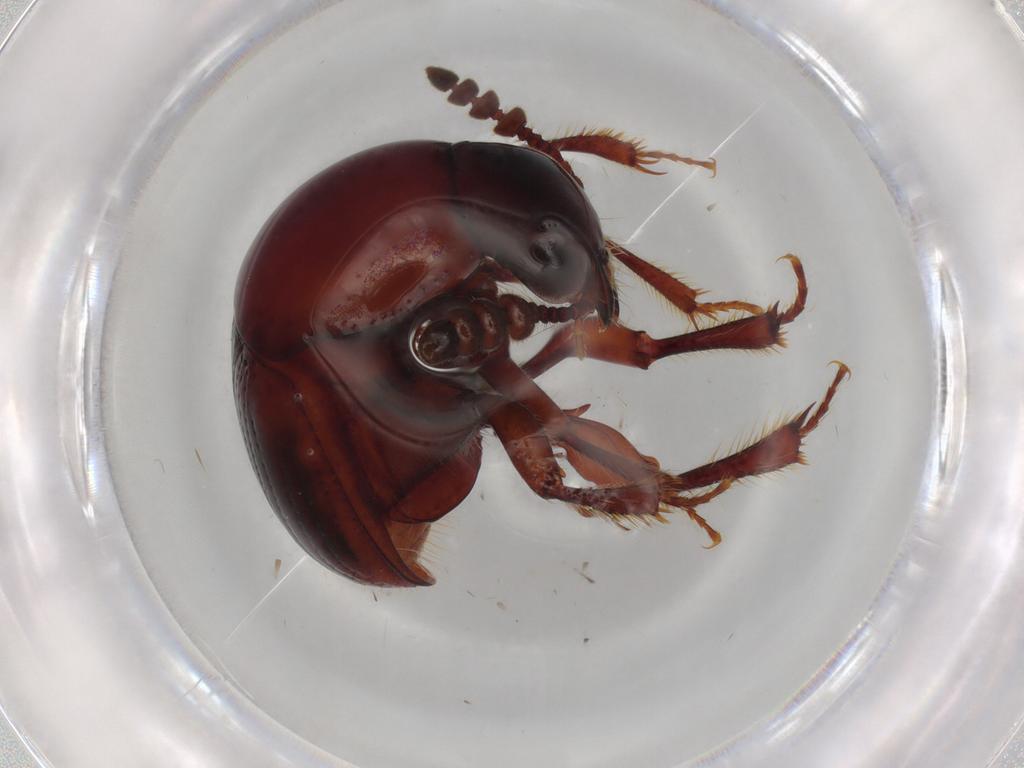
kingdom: Animalia
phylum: Arthropoda
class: Insecta
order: Coleoptera
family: Leiodidae
